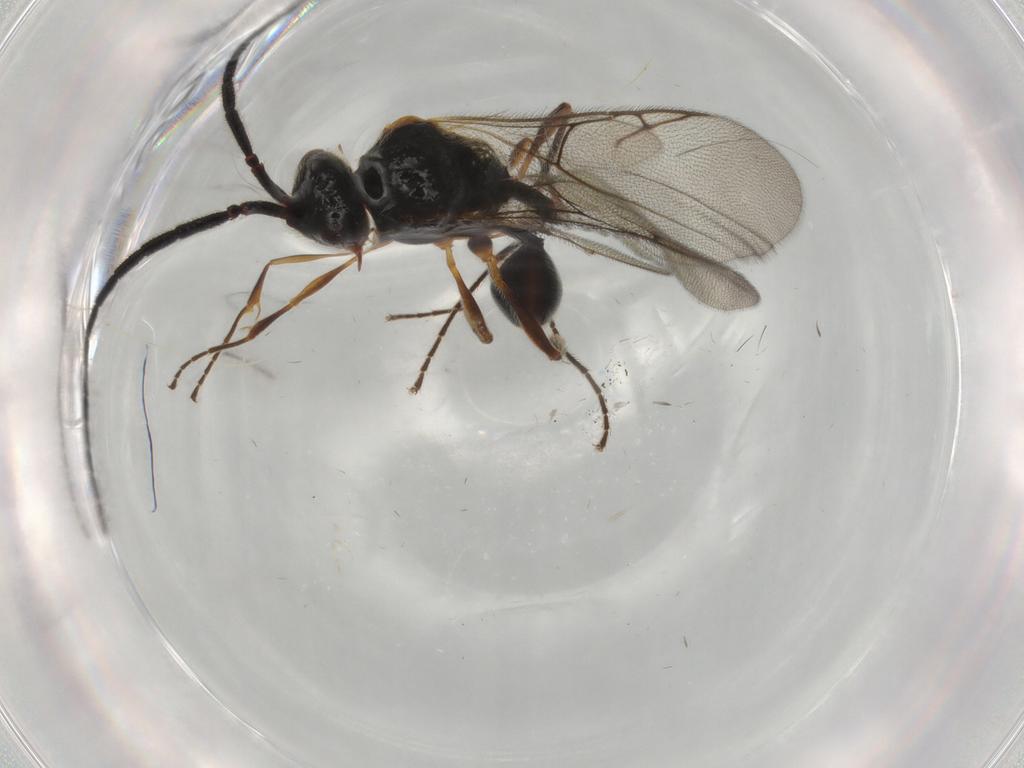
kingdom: Animalia
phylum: Arthropoda
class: Insecta
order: Hymenoptera
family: Diapriidae
